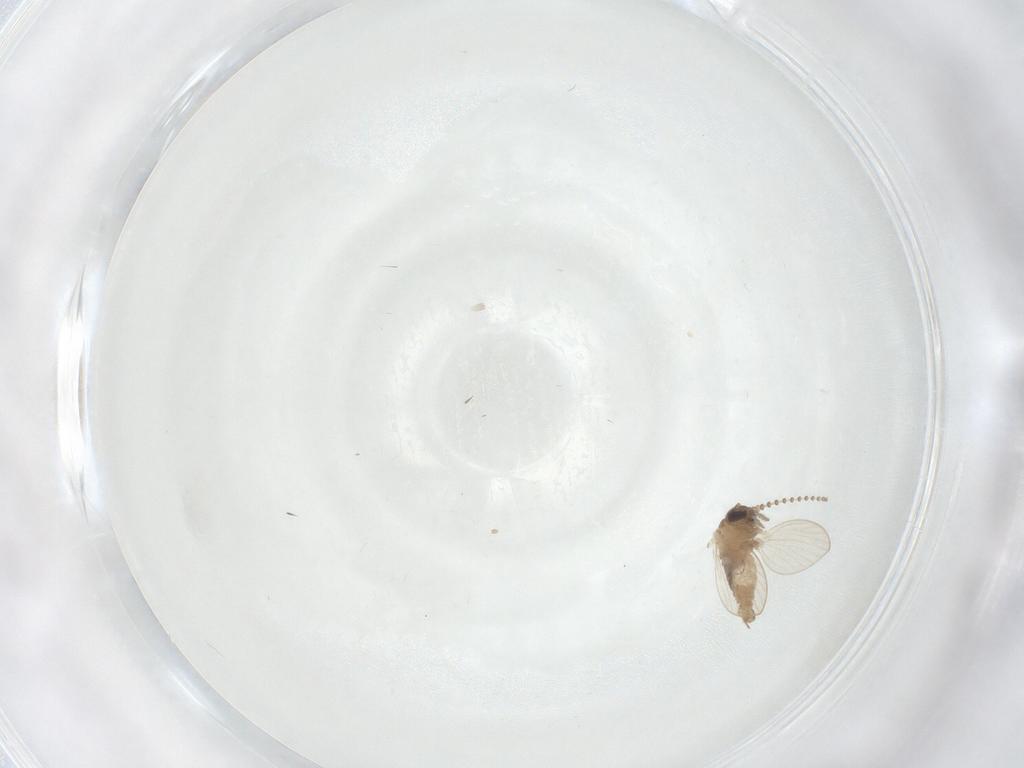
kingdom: Animalia
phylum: Arthropoda
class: Insecta
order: Diptera
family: Psychodidae
